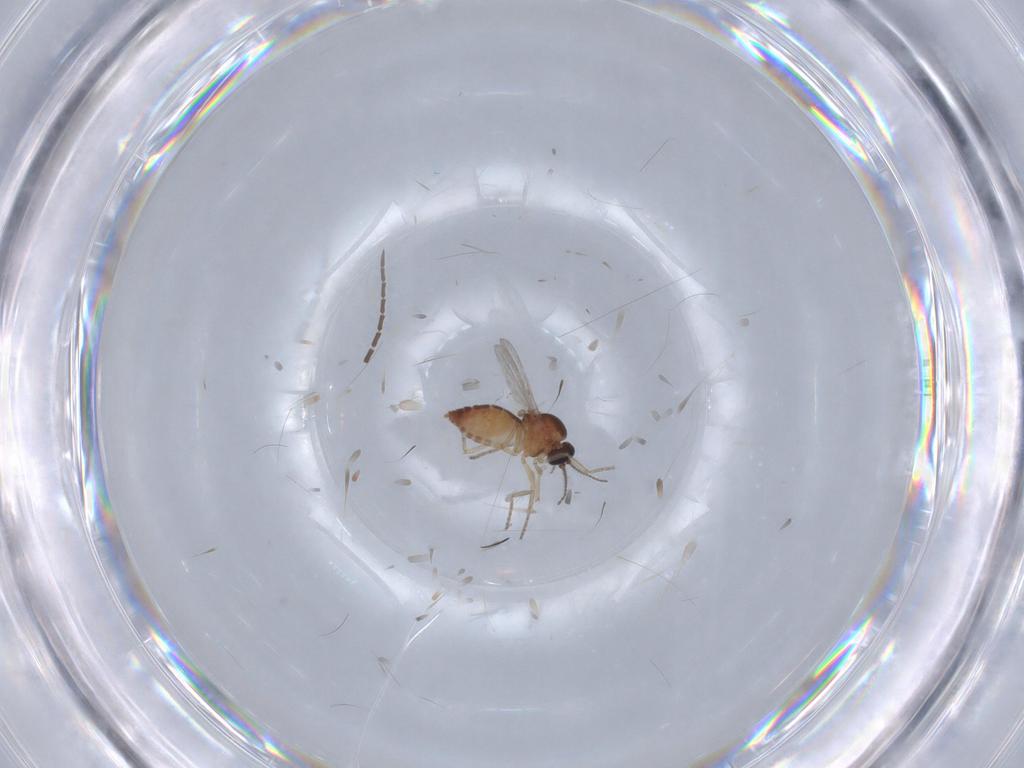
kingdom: Animalia
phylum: Arthropoda
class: Insecta
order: Diptera
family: Ceratopogonidae
